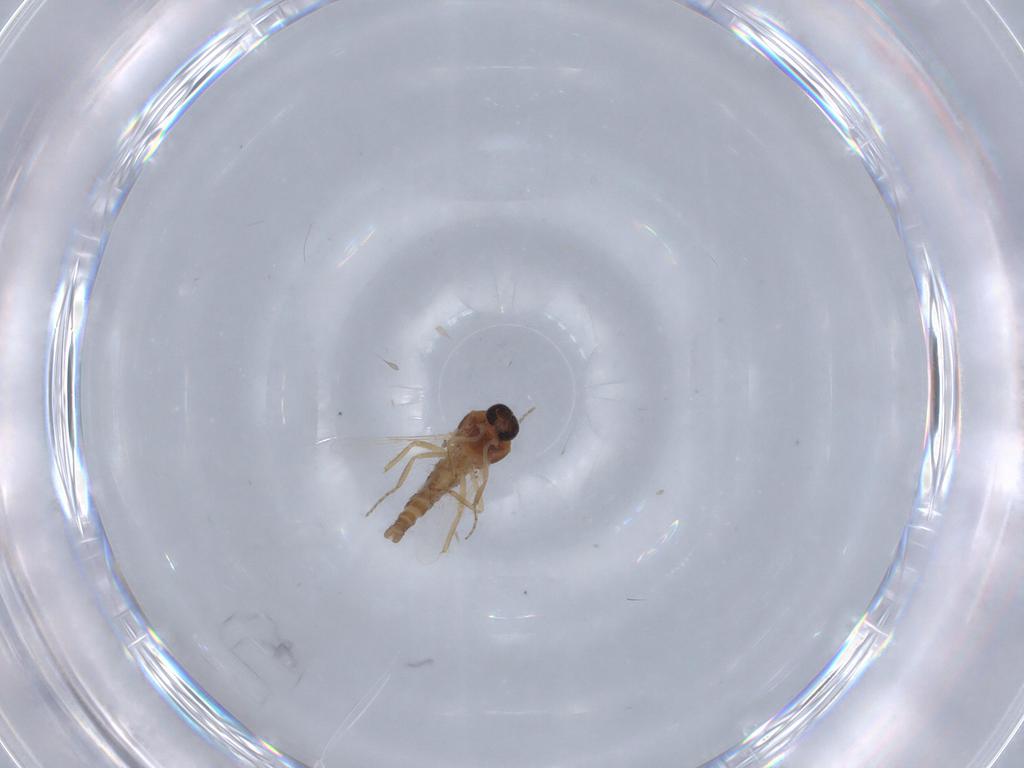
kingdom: Animalia
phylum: Arthropoda
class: Insecta
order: Diptera
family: Ceratopogonidae
